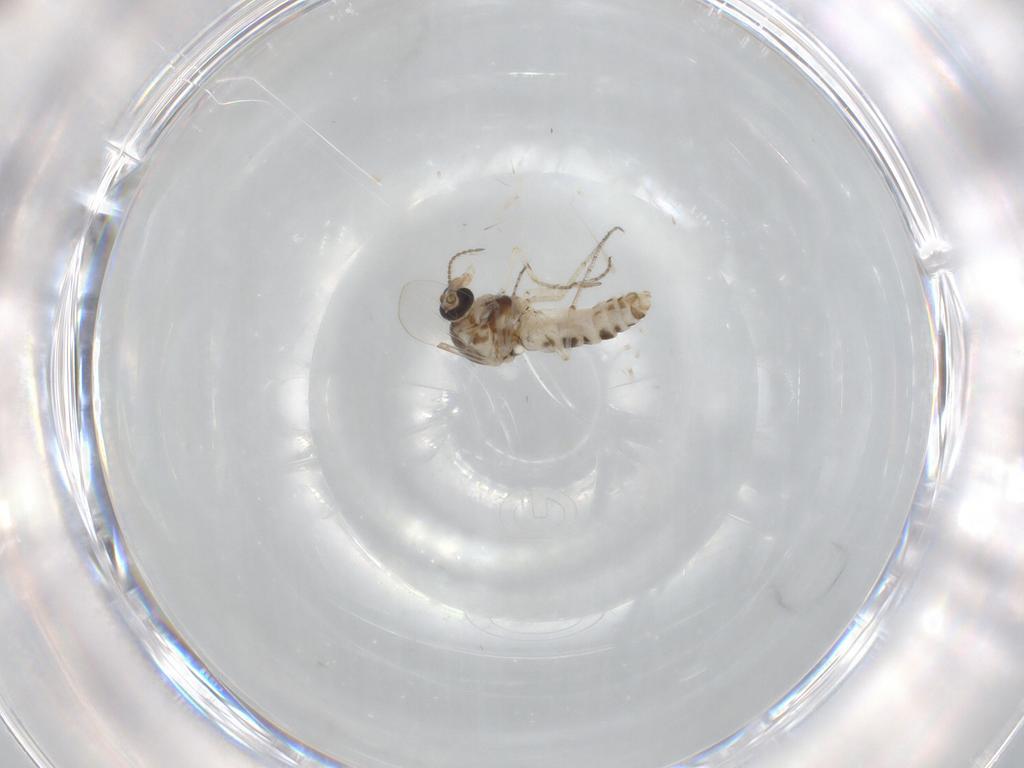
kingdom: Animalia
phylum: Arthropoda
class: Insecta
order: Diptera
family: Ceratopogonidae
